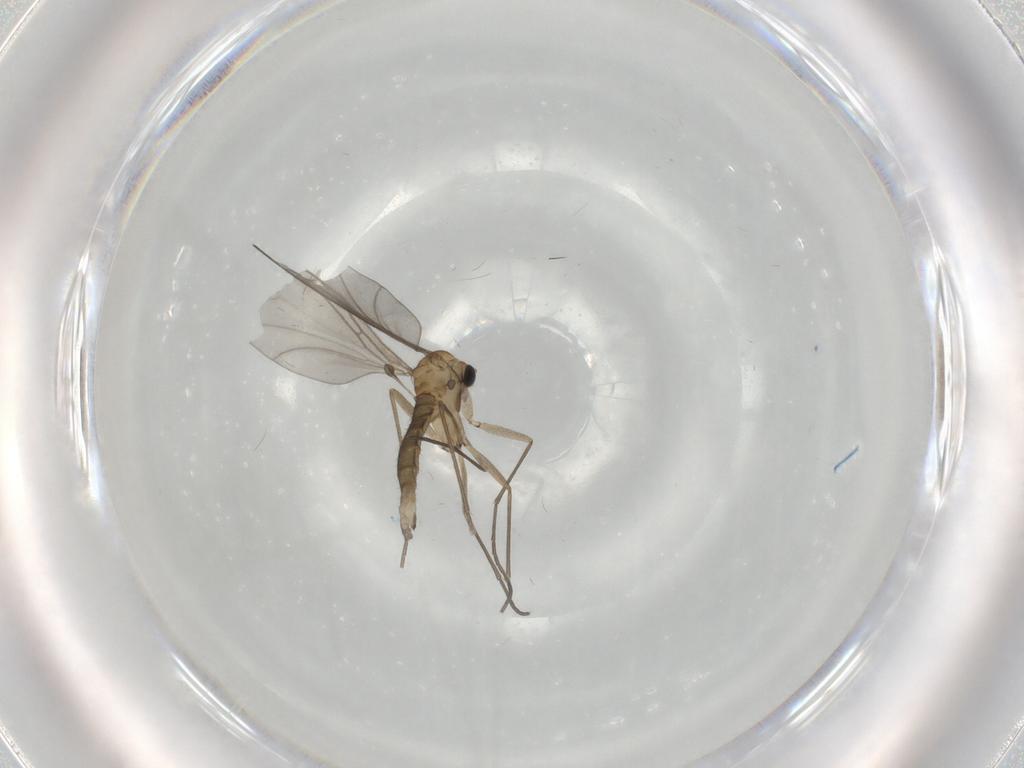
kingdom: Animalia
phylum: Arthropoda
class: Insecta
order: Diptera
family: Sciaridae
